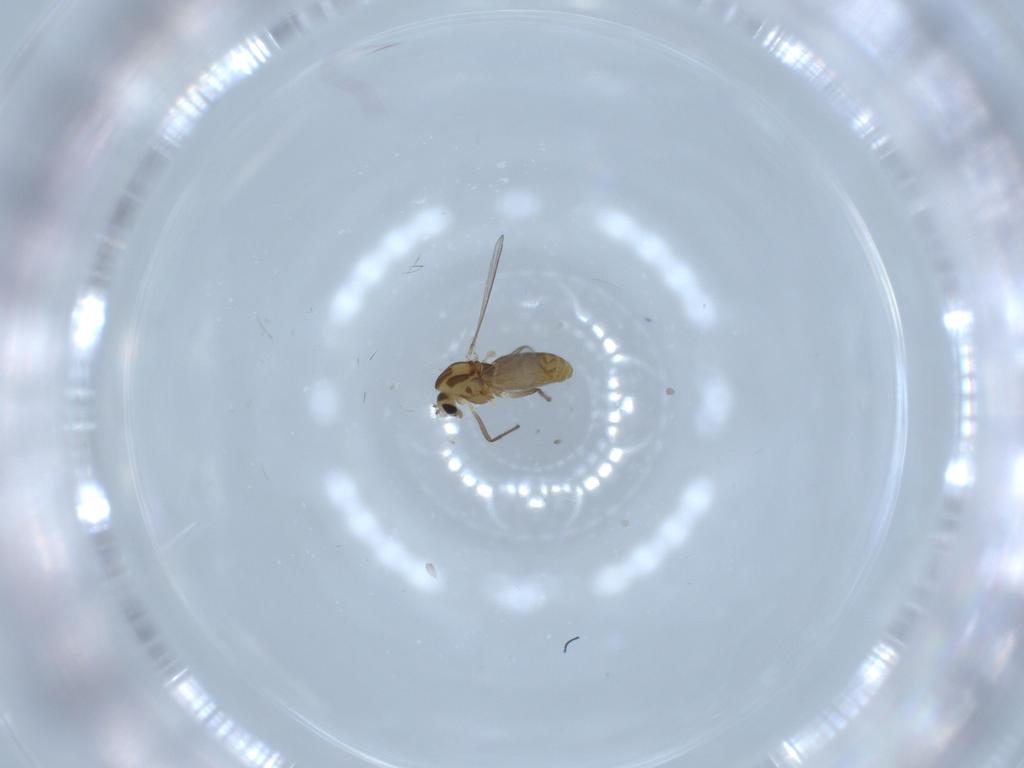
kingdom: Animalia
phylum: Arthropoda
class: Insecta
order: Diptera
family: Chironomidae
